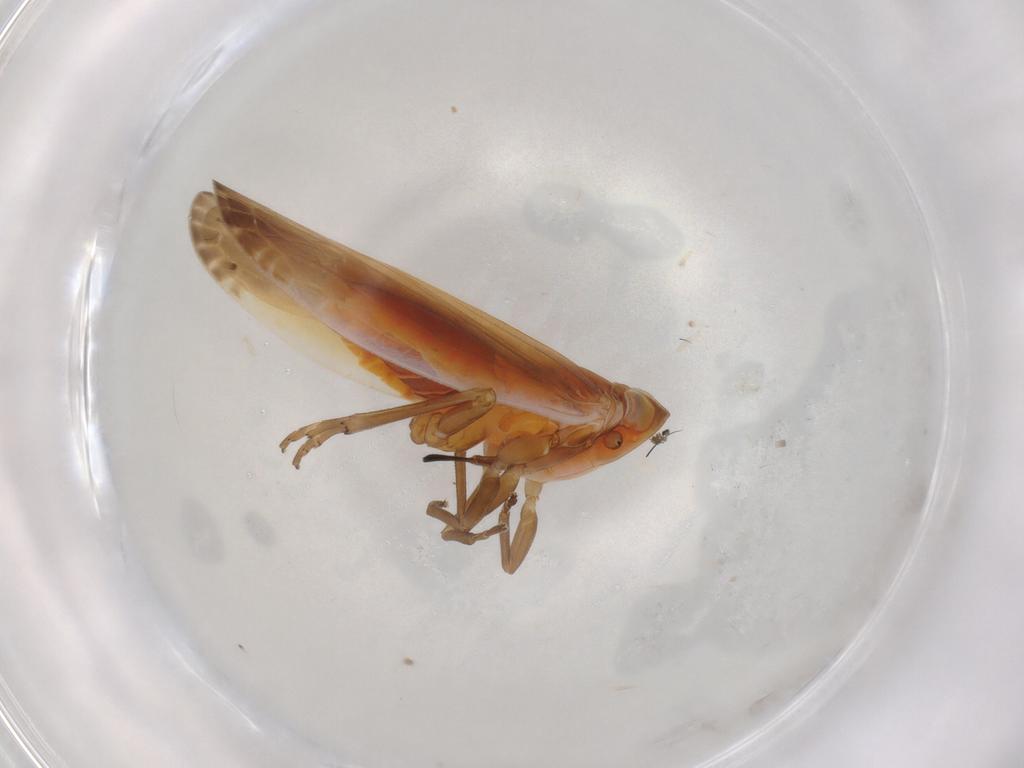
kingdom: Animalia
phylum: Arthropoda
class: Insecta
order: Hemiptera
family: Achilidae
